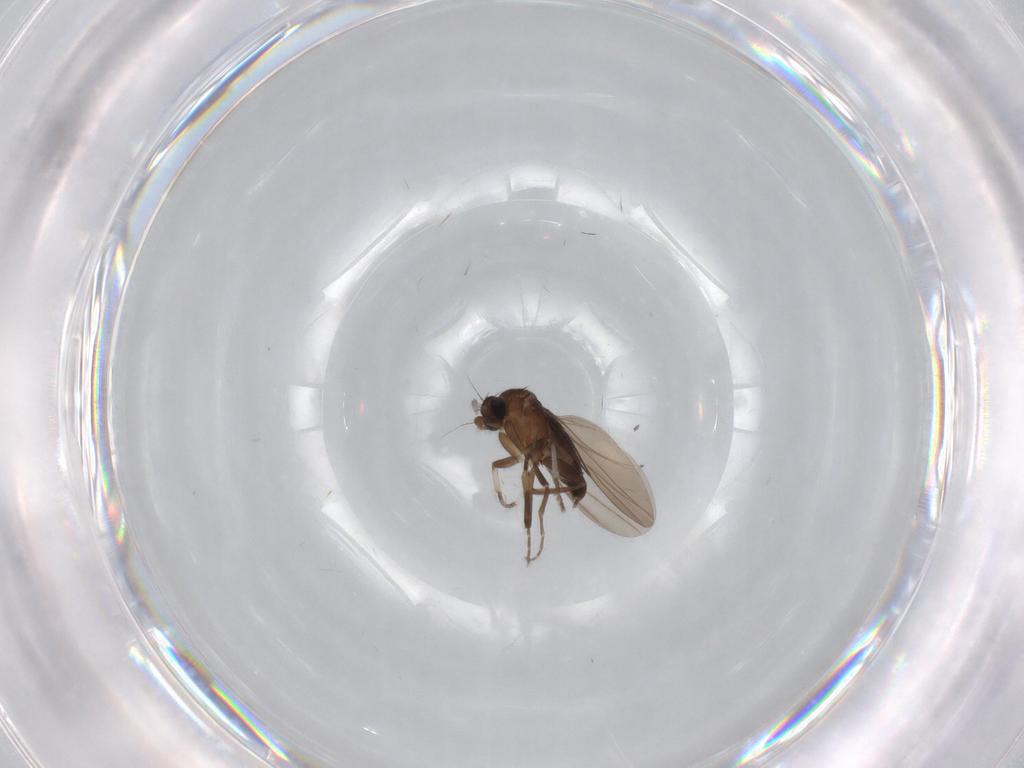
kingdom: Animalia
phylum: Arthropoda
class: Insecta
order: Diptera
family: Phoridae
